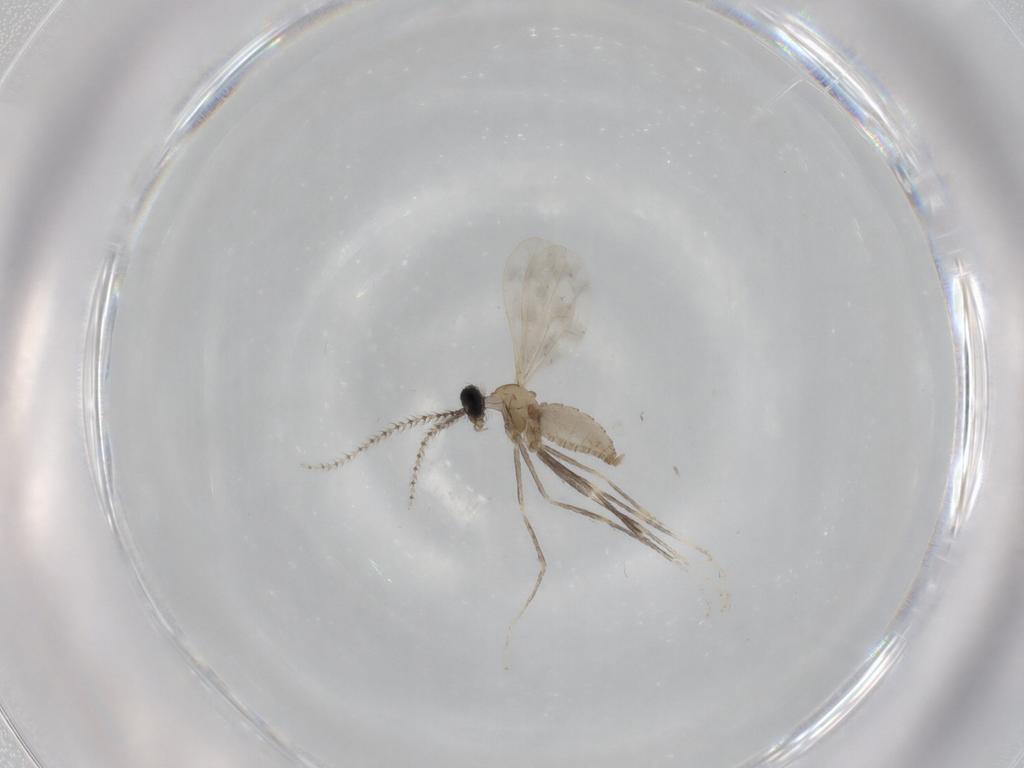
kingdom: Animalia
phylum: Arthropoda
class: Insecta
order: Diptera
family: Cecidomyiidae
